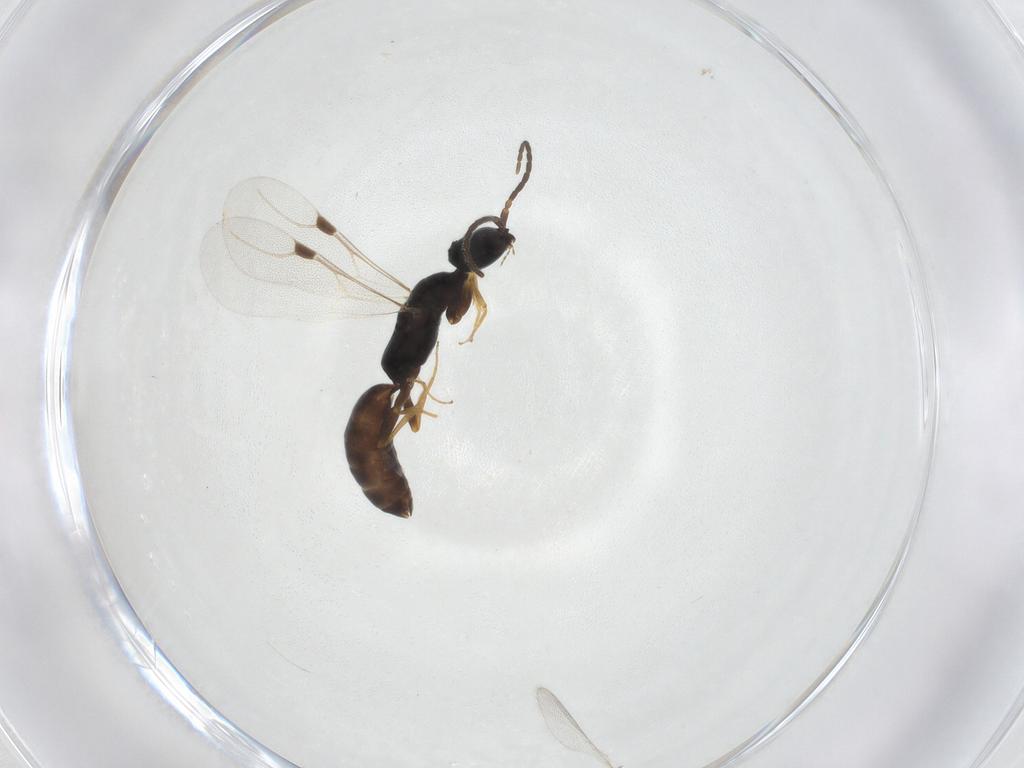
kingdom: Animalia
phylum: Arthropoda
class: Insecta
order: Hymenoptera
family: Bethylidae
